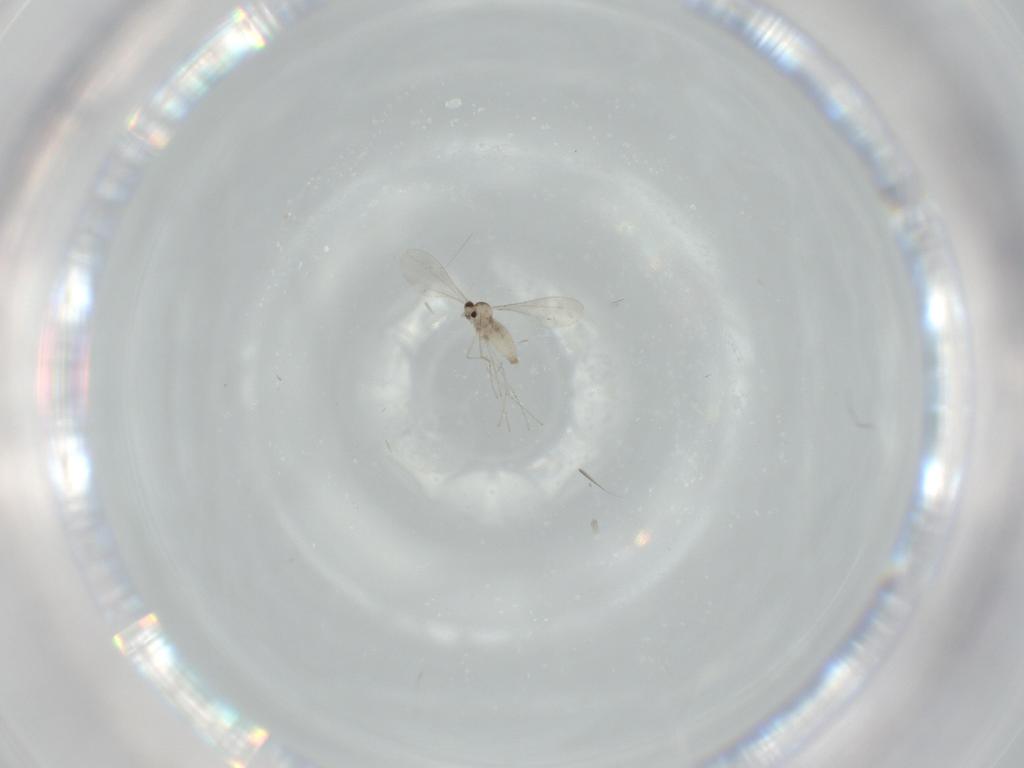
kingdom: Animalia
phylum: Arthropoda
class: Insecta
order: Diptera
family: Cecidomyiidae
